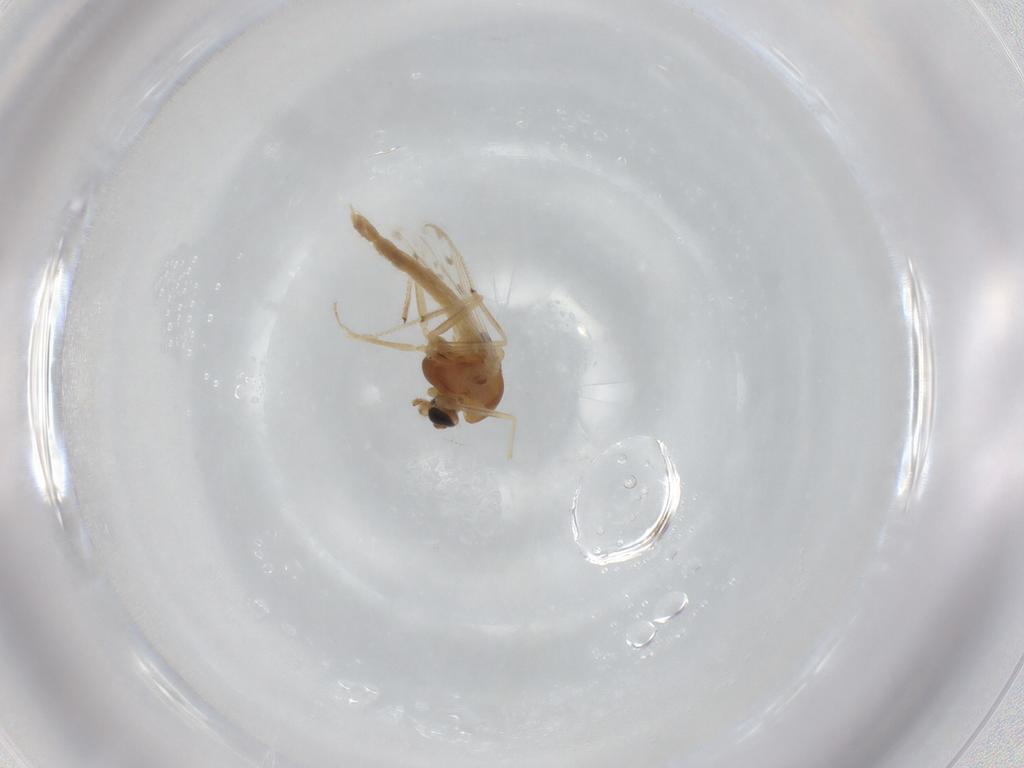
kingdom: Animalia
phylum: Arthropoda
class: Insecta
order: Diptera
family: Chironomidae
